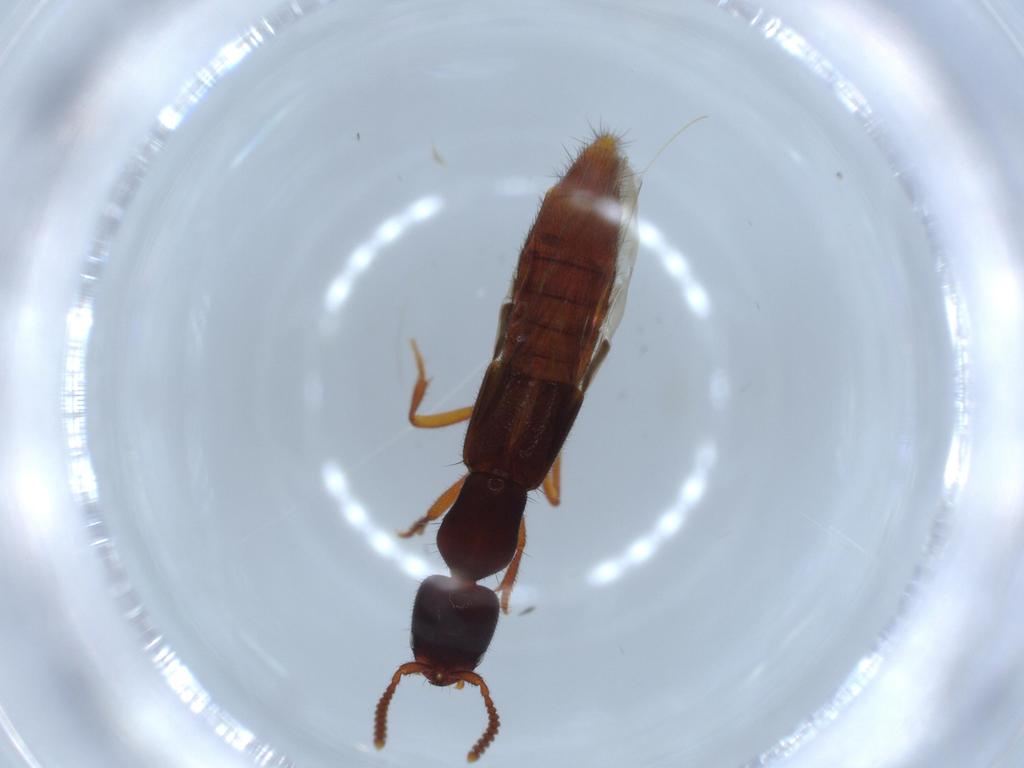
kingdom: Animalia
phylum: Arthropoda
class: Insecta
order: Coleoptera
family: Staphylinidae
